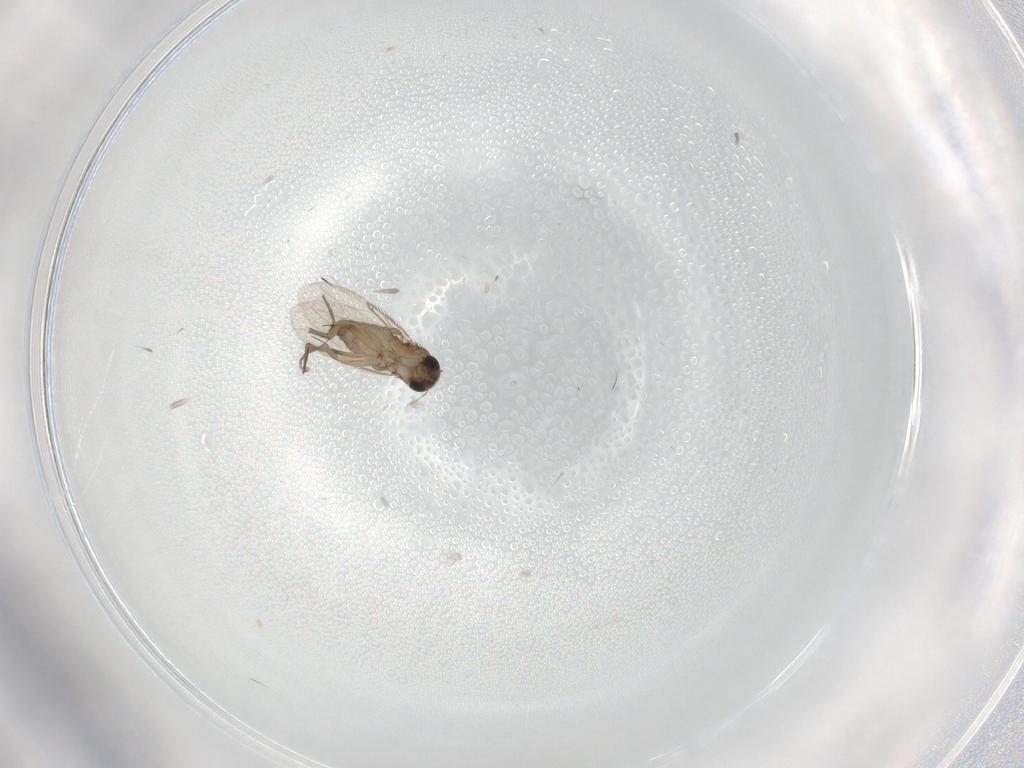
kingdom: Animalia
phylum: Arthropoda
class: Insecta
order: Diptera
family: Phoridae
